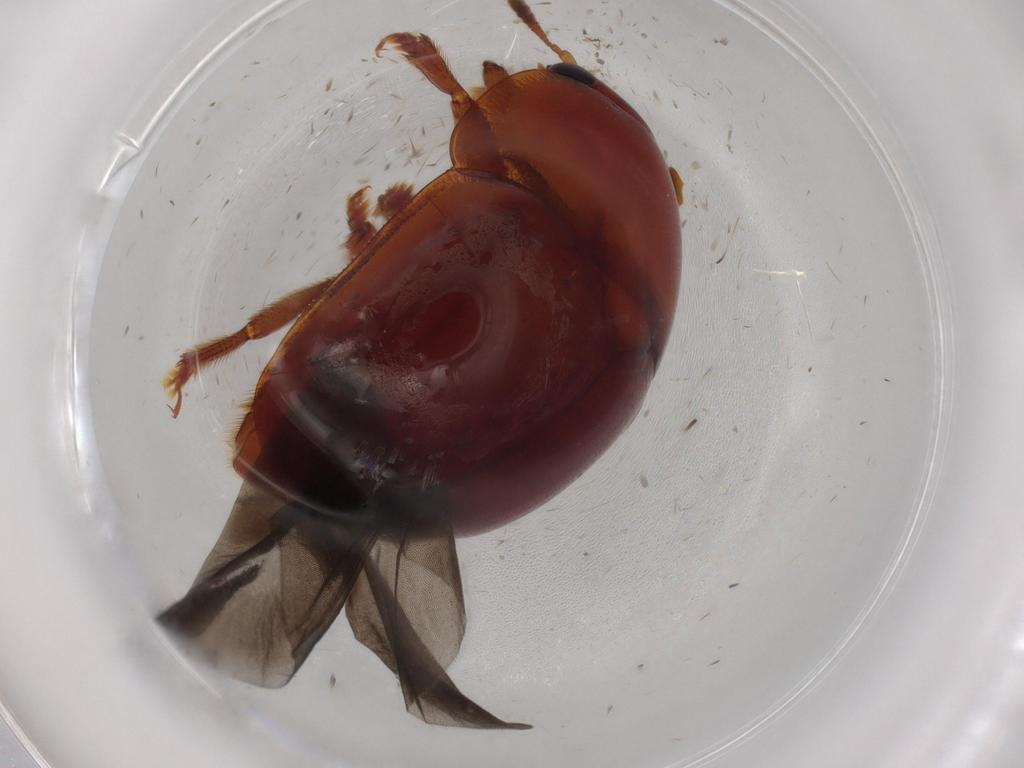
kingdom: Animalia
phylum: Arthropoda
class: Insecta
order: Coleoptera
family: Nitidulidae
